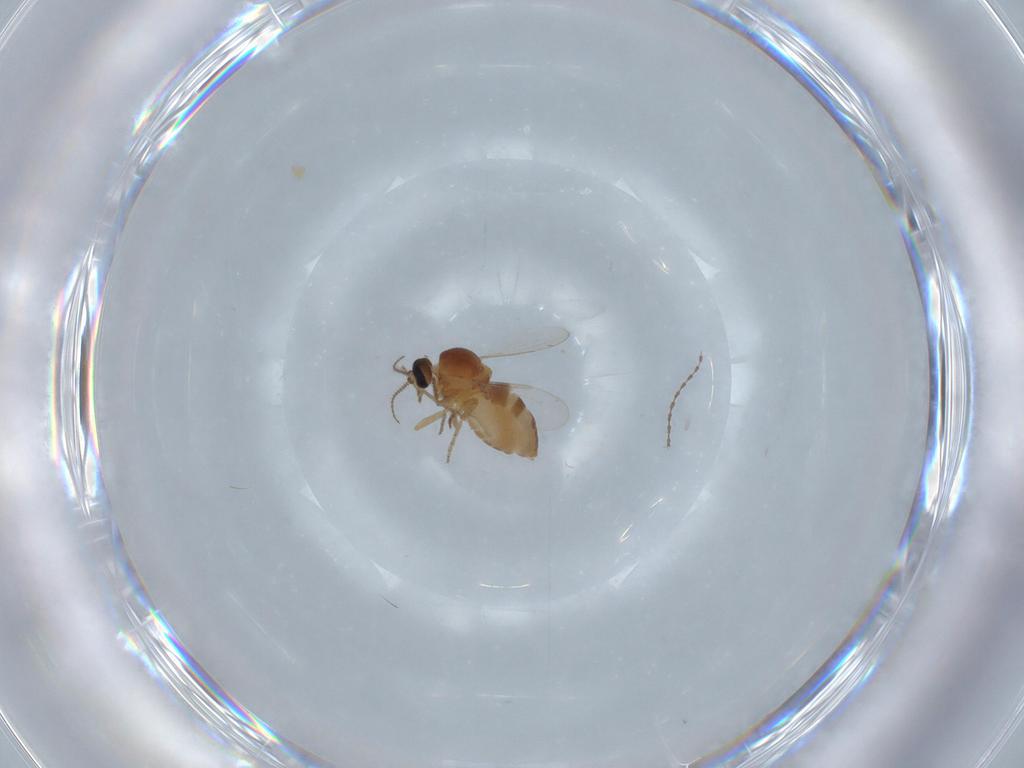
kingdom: Animalia
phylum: Arthropoda
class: Insecta
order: Diptera
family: Ceratopogonidae
